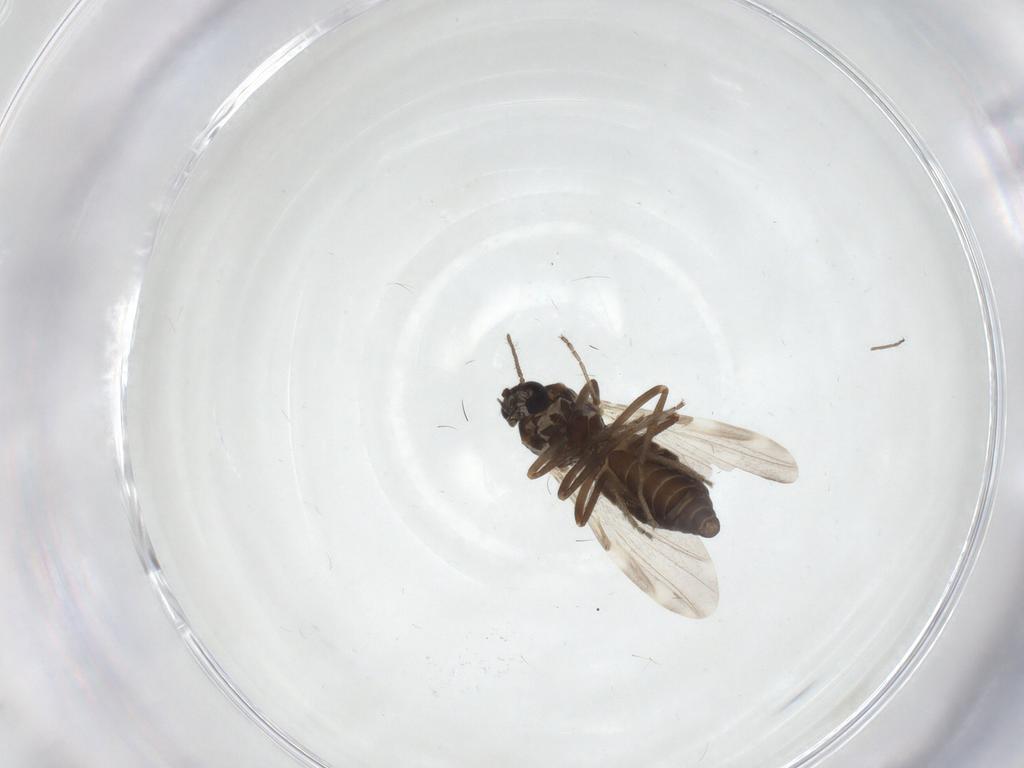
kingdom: Animalia
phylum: Arthropoda
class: Insecta
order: Diptera
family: Ceratopogonidae
